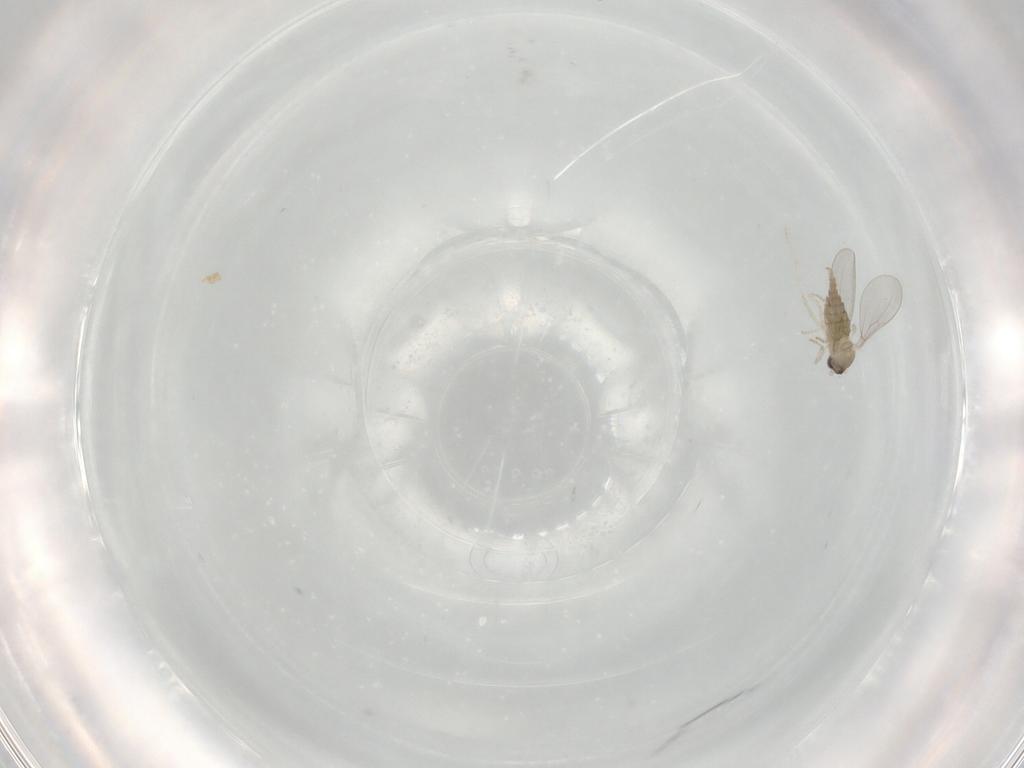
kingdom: Animalia
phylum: Arthropoda
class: Insecta
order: Diptera
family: Cecidomyiidae
